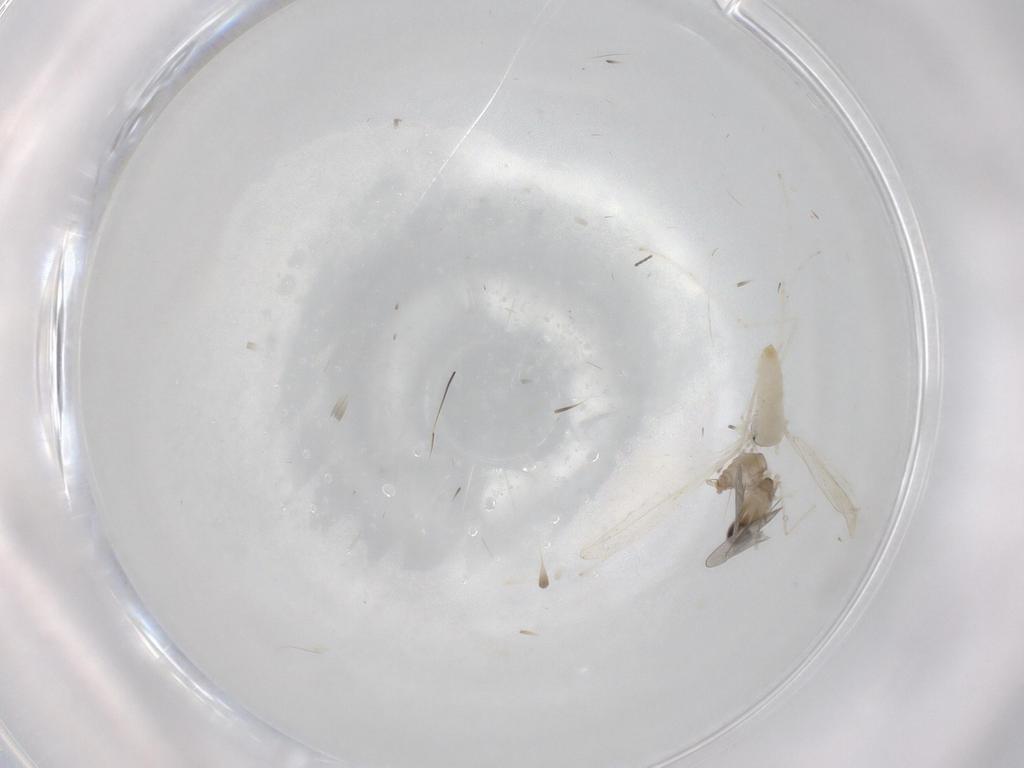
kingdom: Animalia
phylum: Arthropoda
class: Insecta
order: Diptera
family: Cecidomyiidae
